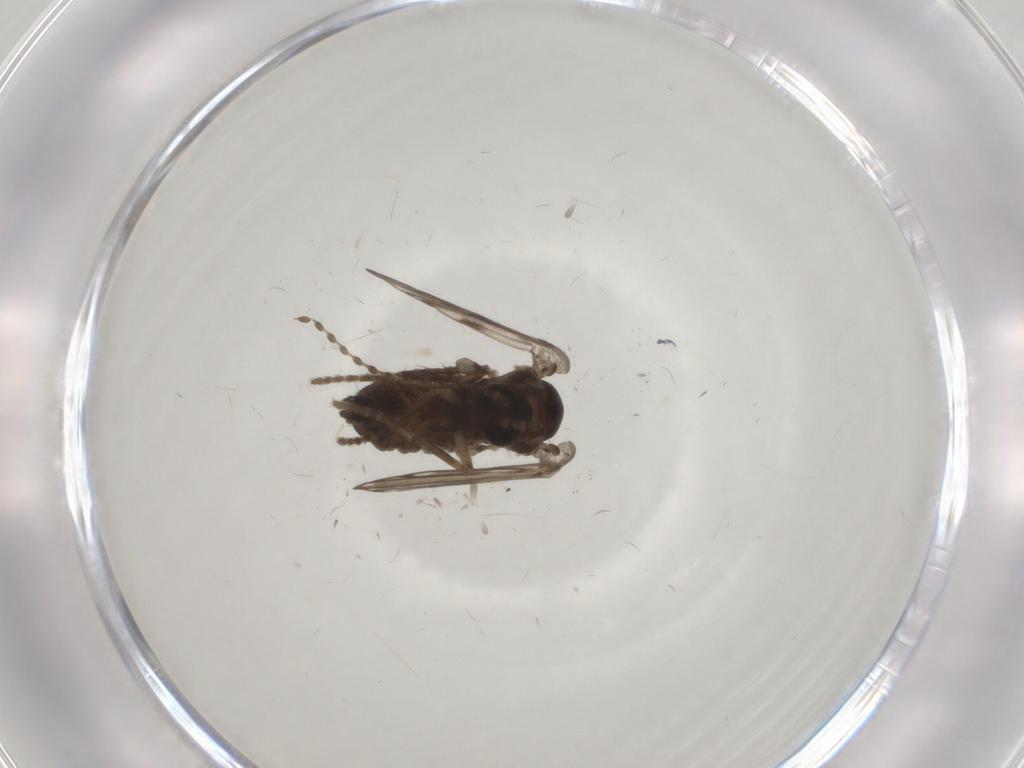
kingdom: Animalia
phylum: Arthropoda
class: Insecta
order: Diptera
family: Psychodidae
